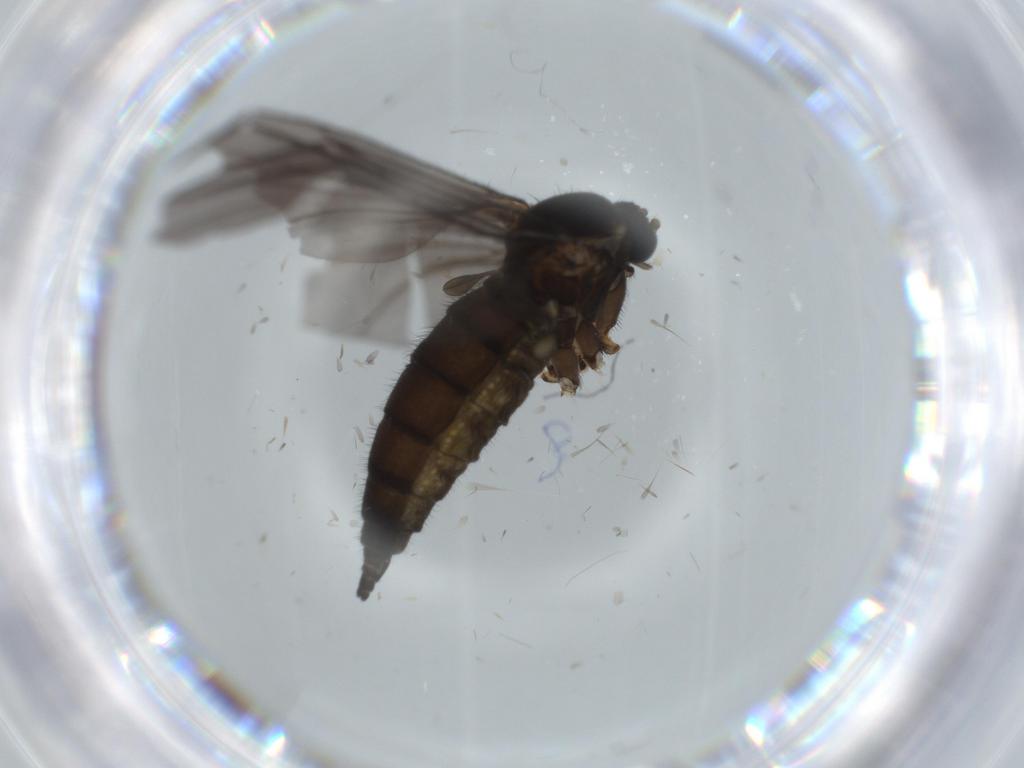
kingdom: Animalia
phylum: Arthropoda
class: Insecta
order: Diptera
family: Sciaridae
